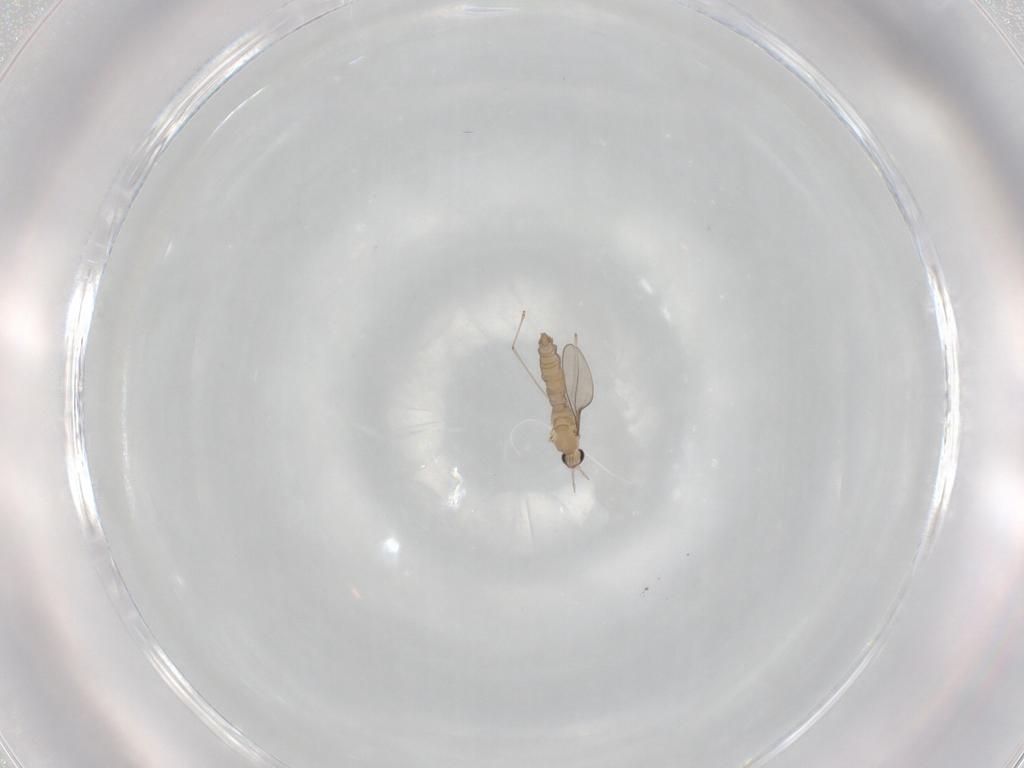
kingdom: Animalia
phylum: Arthropoda
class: Insecta
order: Diptera
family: Cecidomyiidae
